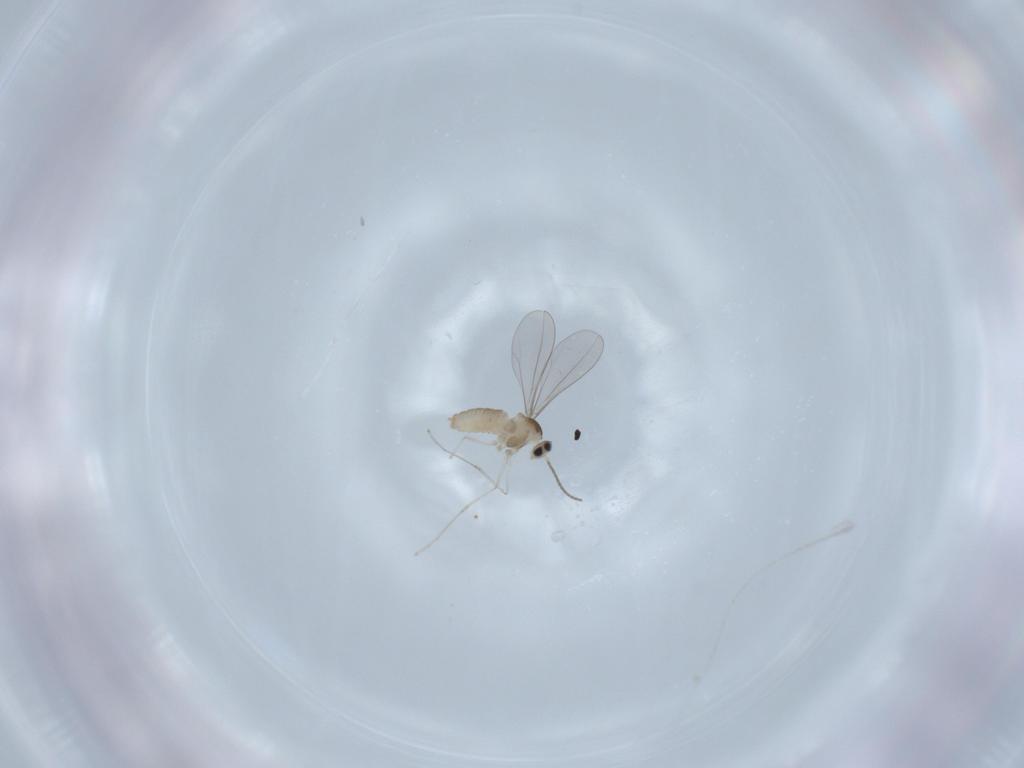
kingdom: Animalia
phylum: Arthropoda
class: Insecta
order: Diptera
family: Cecidomyiidae
